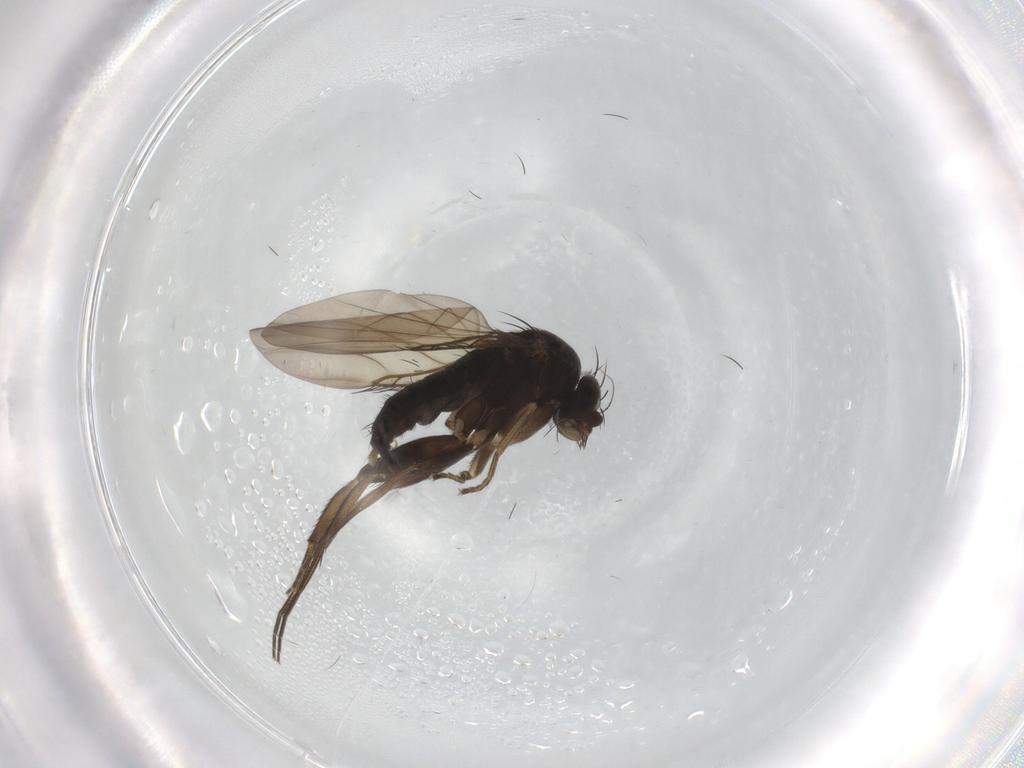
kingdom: Animalia
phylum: Arthropoda
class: Insecta
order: Diptera
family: Phoridae
